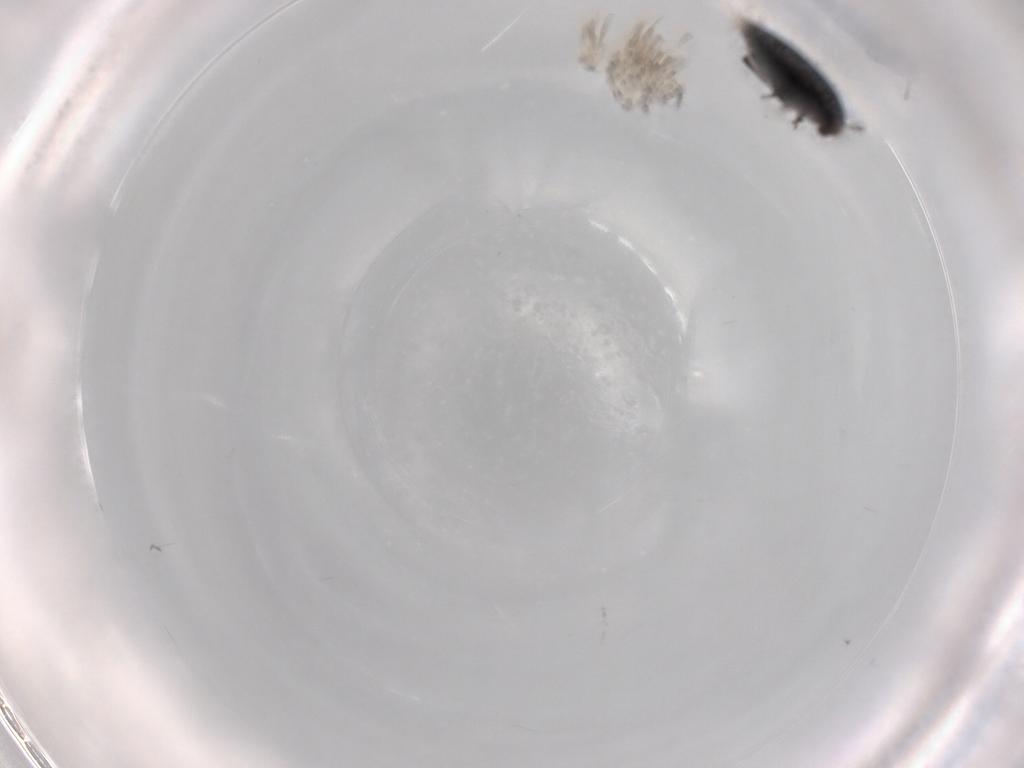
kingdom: Animalia
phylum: Arthropoda
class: Insecta
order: Coleoptera
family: Corylophidae
